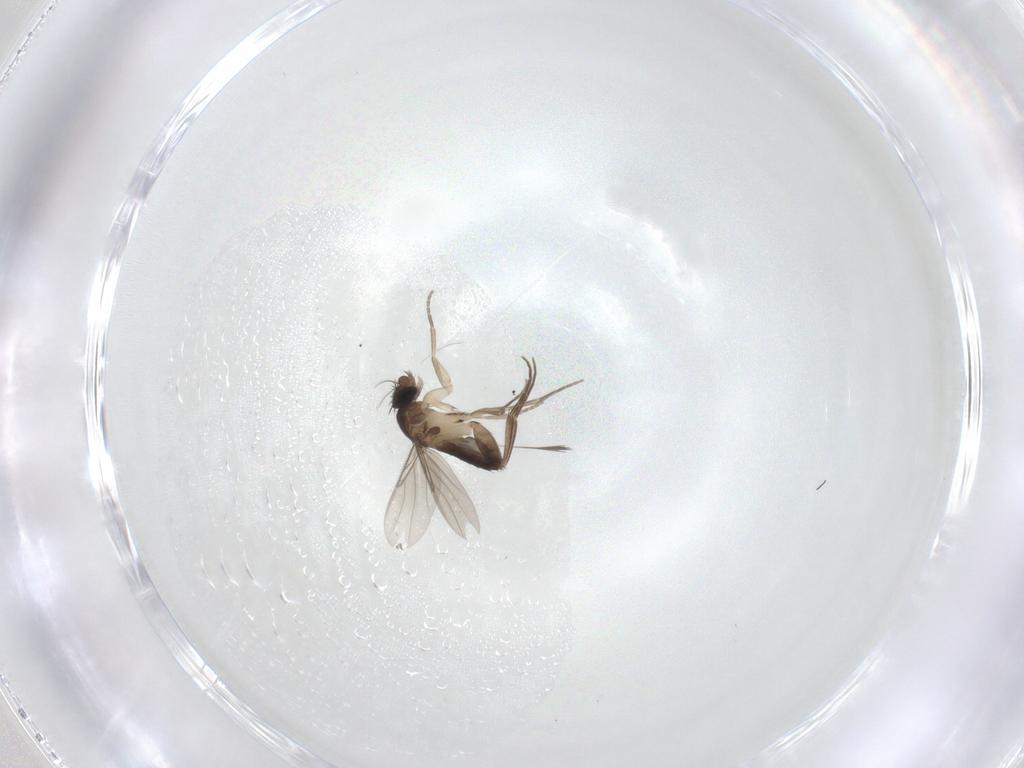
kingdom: Animalia
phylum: Arthropoda
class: Insecta
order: Diptera
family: Phoridae
